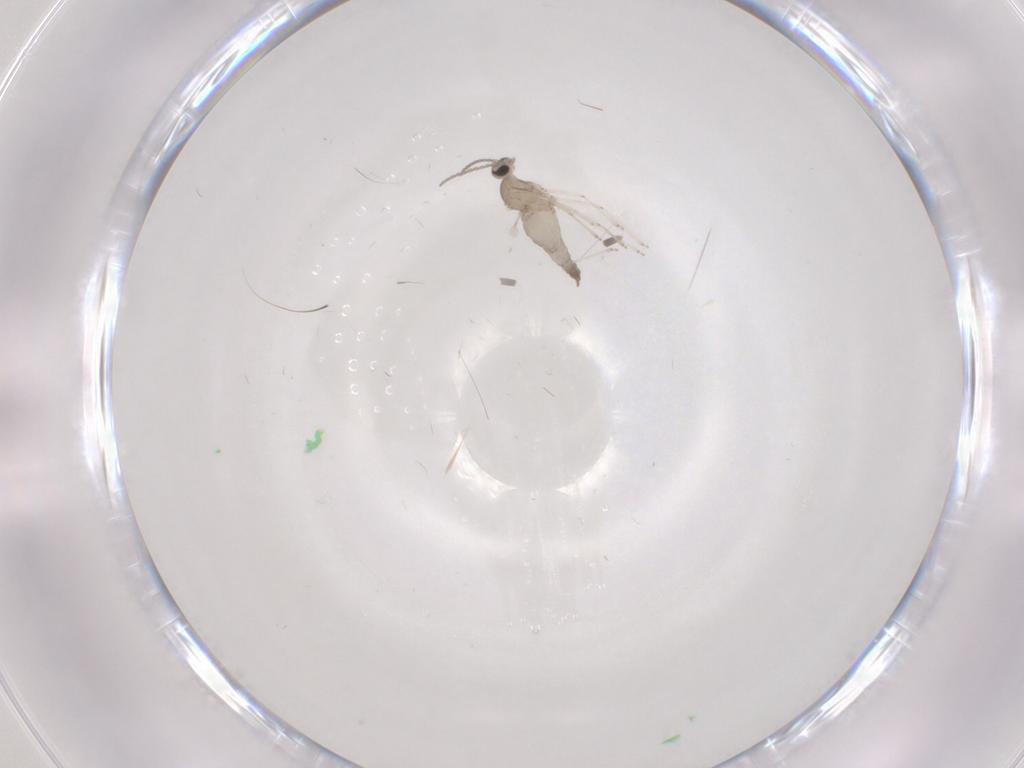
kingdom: Animalia
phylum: Arthropoda
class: Insecta
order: Diptera
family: Cecidomyiidae
